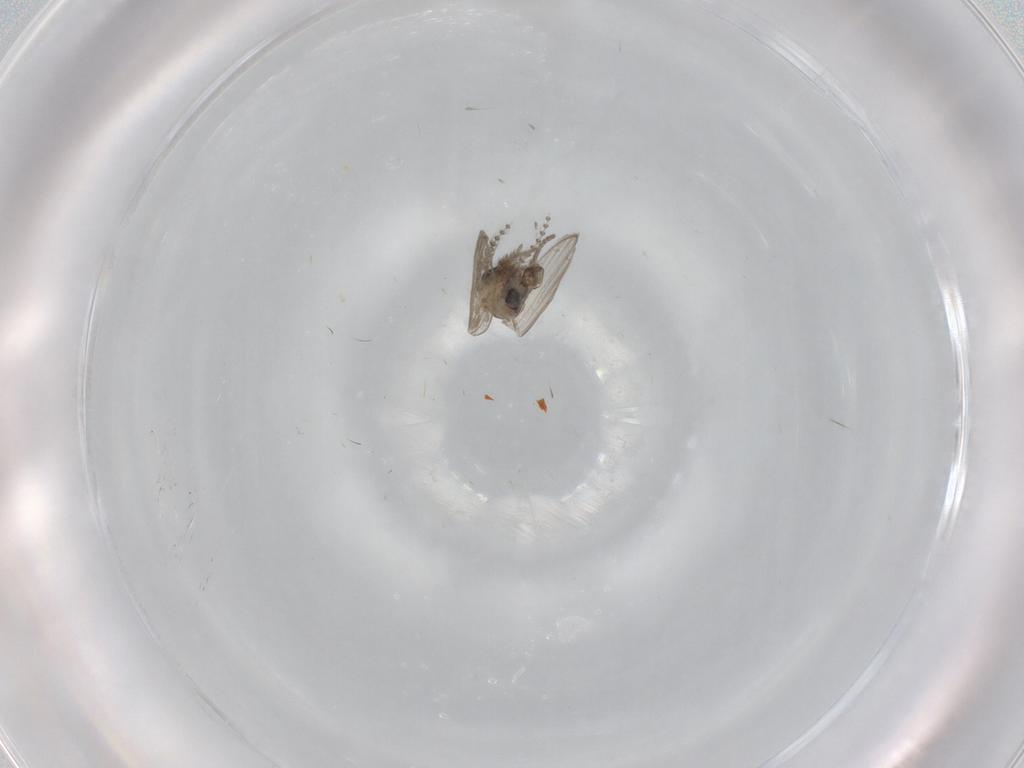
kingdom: Animalia
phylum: Arthropoda
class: Insecta
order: Diptera
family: Psychodidae
